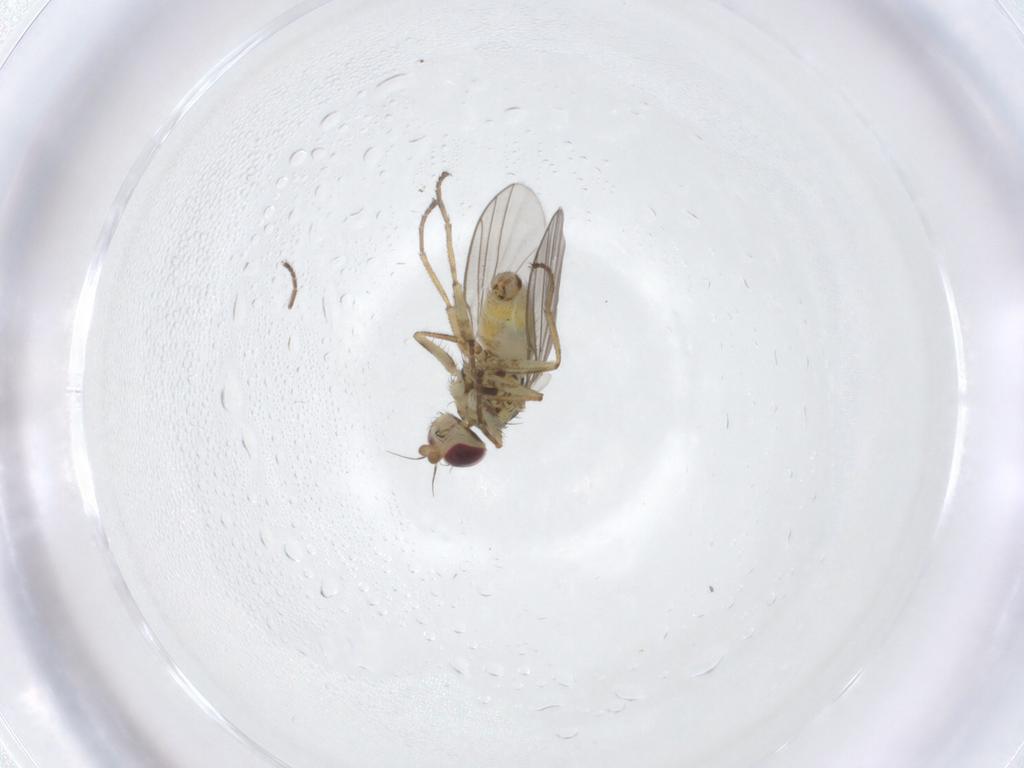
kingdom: Animalia
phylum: Arthropoda
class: Insecta
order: Diptera
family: Agromyzidae
